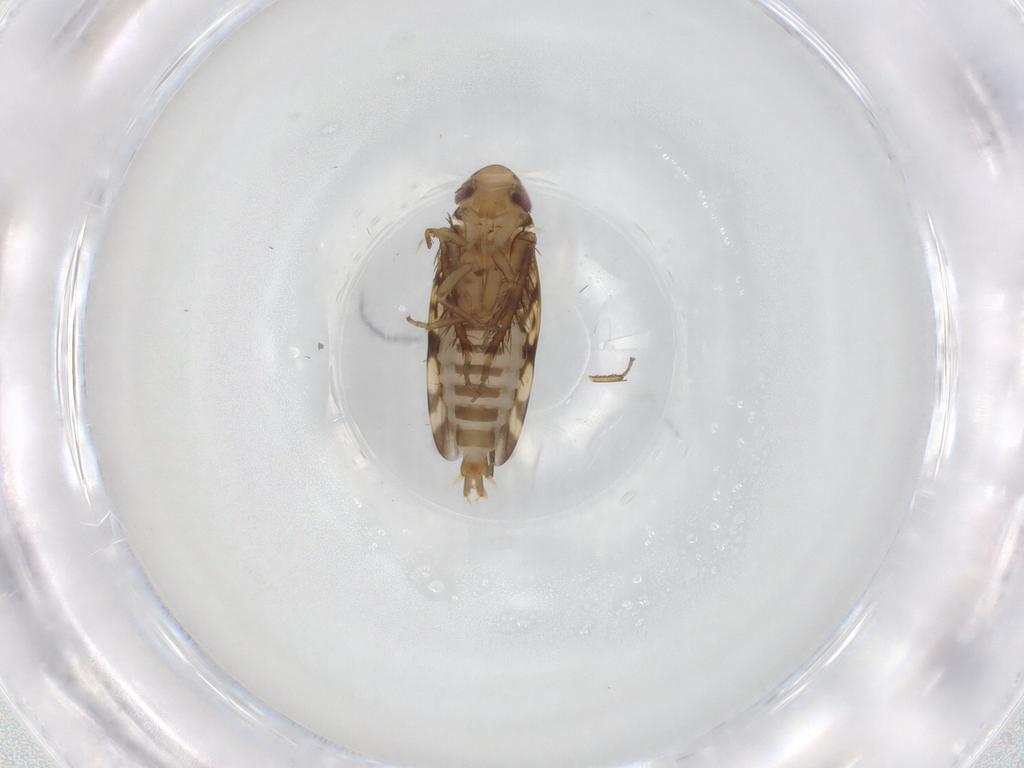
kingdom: Animalia
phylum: Arthropoda
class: Insecta
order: Hemiptera
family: Cicadellidae
